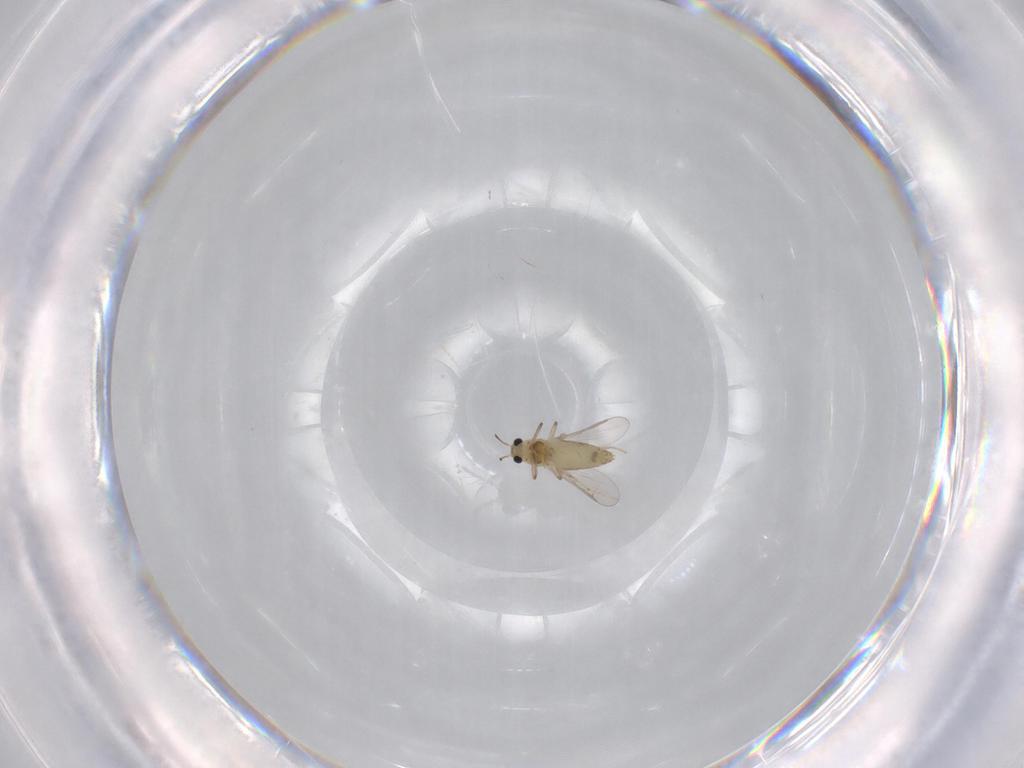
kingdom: Animalia
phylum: Arthropoda
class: Insecta
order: Diptera
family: Chironomidae
